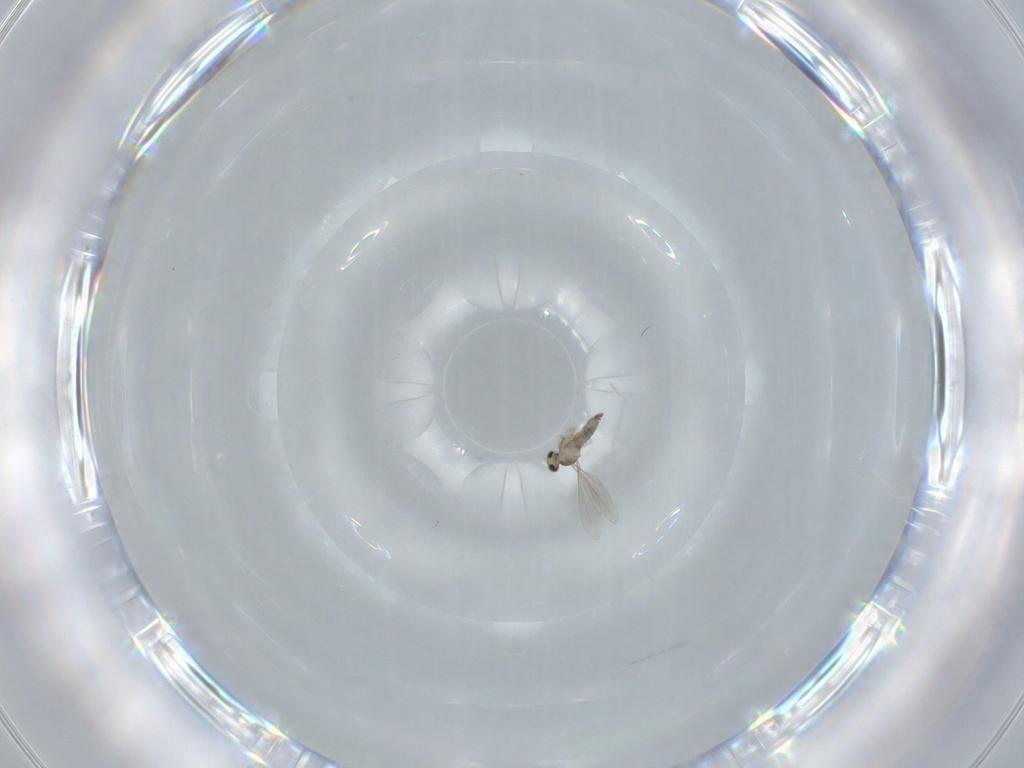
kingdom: Animalia
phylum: Arthropoda
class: Insecta
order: Diptera
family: Cecidomyiidae
